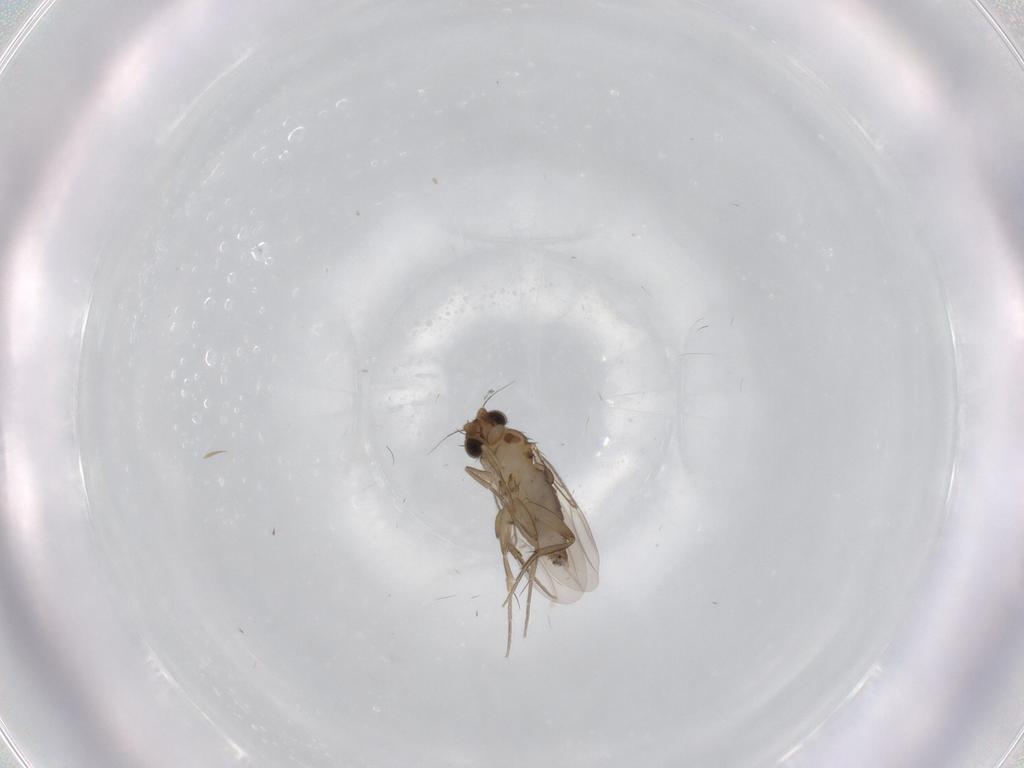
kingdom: Animalia
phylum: Arthropoda
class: Insecta
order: Diptera
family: Phoridae
